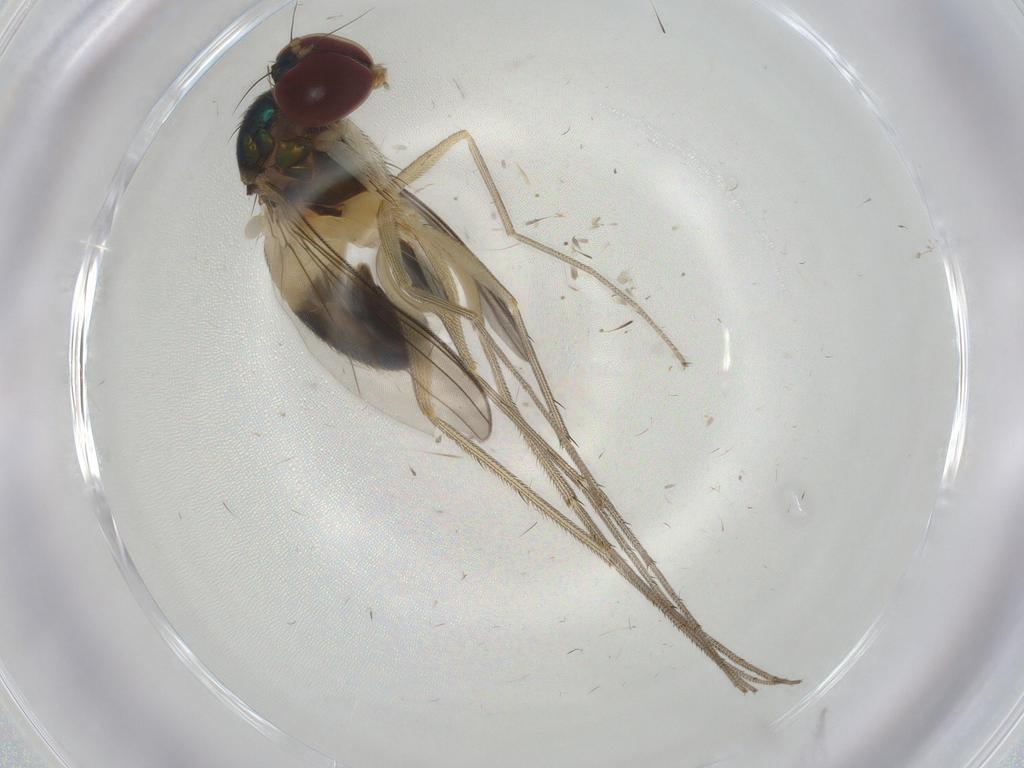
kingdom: Animalia
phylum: Arthropoda
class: Insecta
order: Diptera
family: Dolichopodidae
